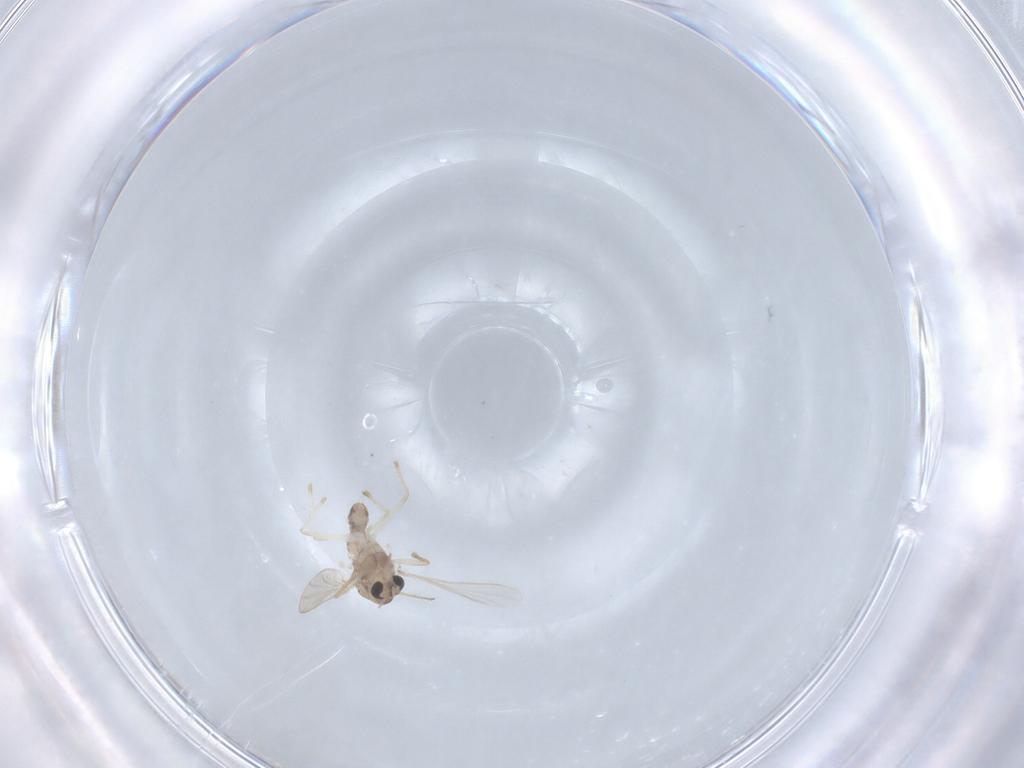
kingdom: Animalia
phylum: Arthropoda
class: Insecta
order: Diptera
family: Chironomidae
